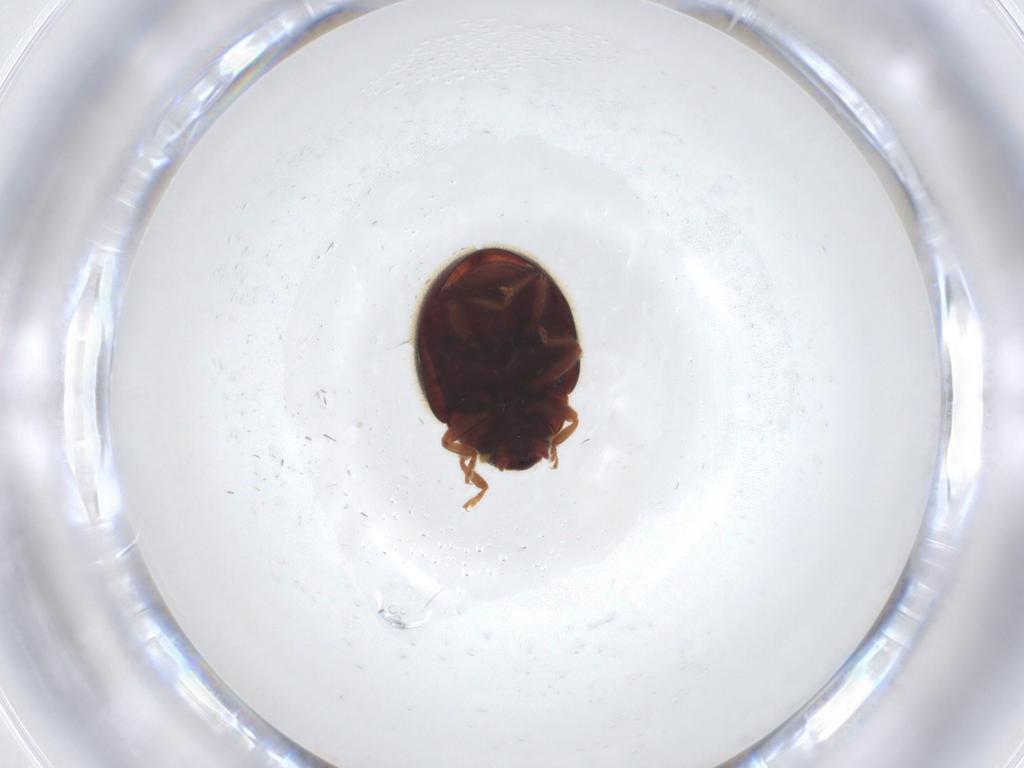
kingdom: Animalia
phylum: Arthropoda
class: Insecta
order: Coleoptera
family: Coccinellidae
